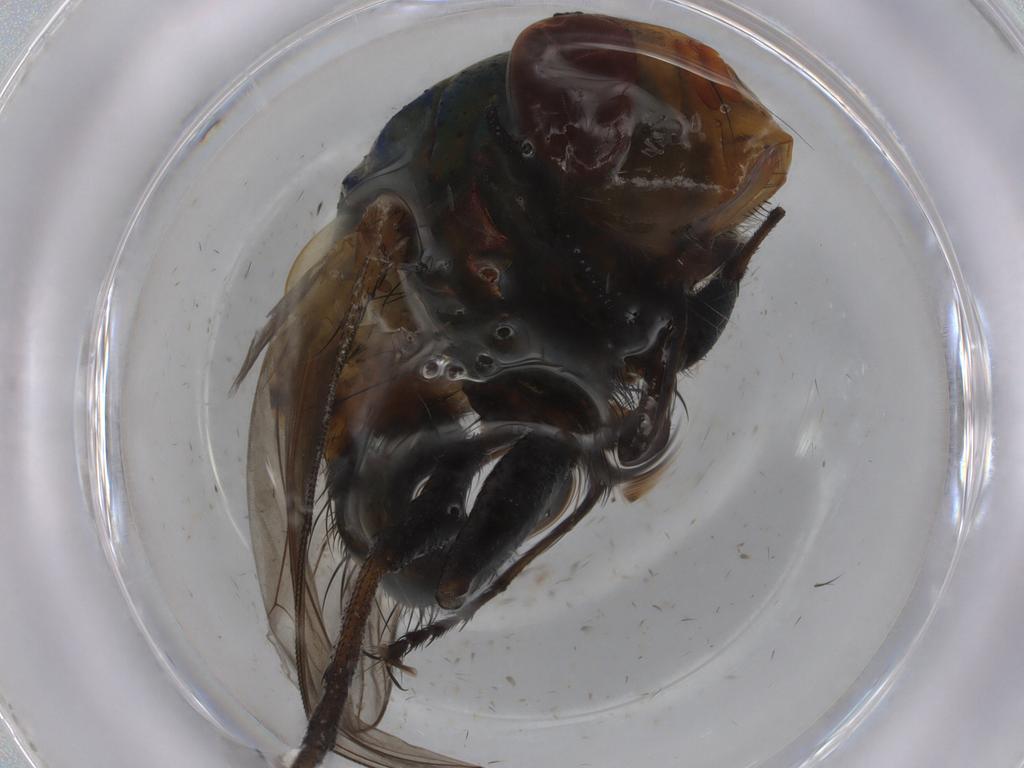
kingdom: Animalia
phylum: Arthropoda
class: Insecta
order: Diptera
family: Calliphoridae
